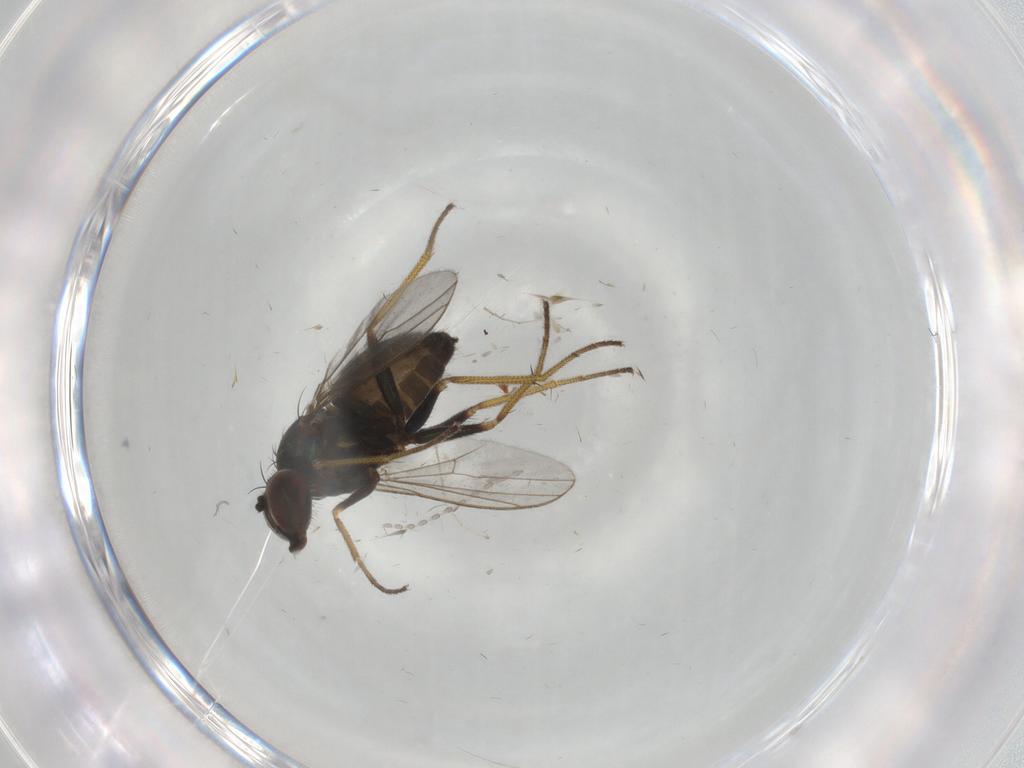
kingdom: Animalia
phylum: Arthropoda
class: Insecta
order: Diptera
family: Dolichopodidae
